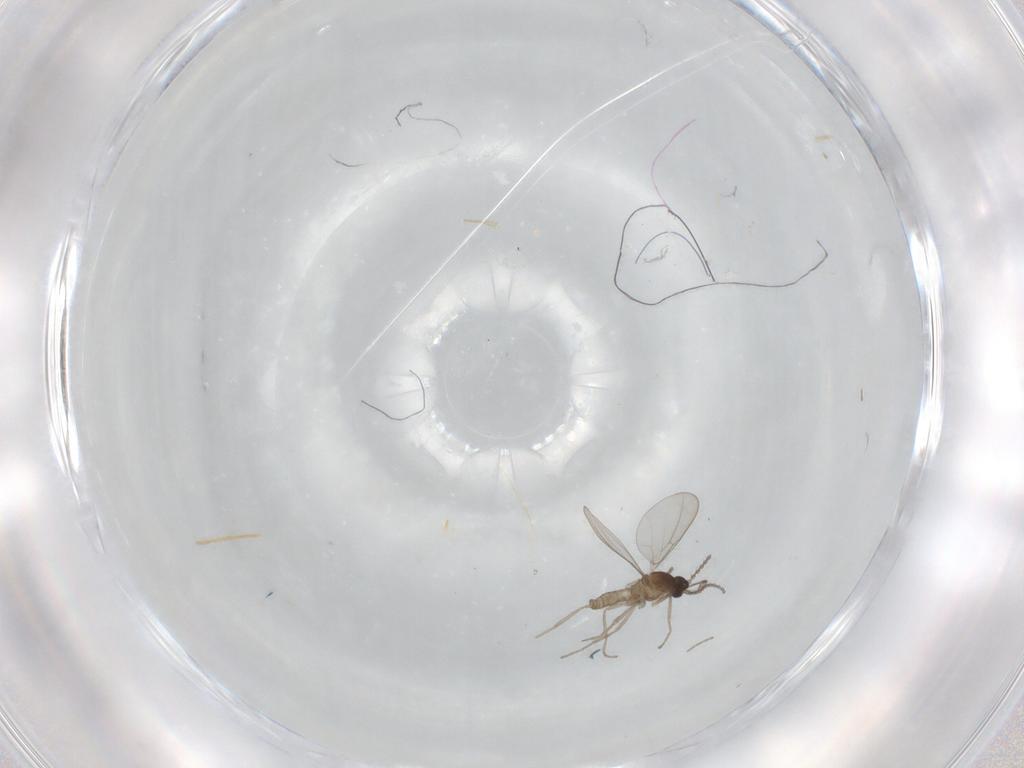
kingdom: Animalia
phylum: Arthropoda
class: Insecta
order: Diptera
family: Chironomidae
